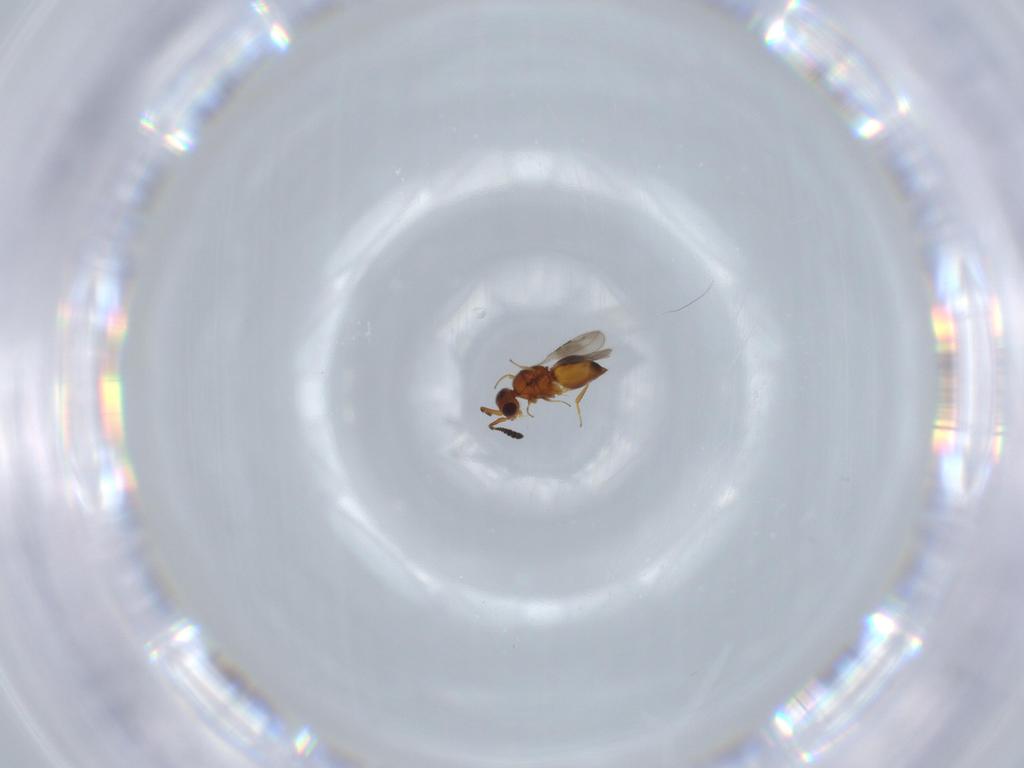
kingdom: Animalia
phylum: Arthropoda
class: Insecta
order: Hymenoptera
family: Ceraphronidae
